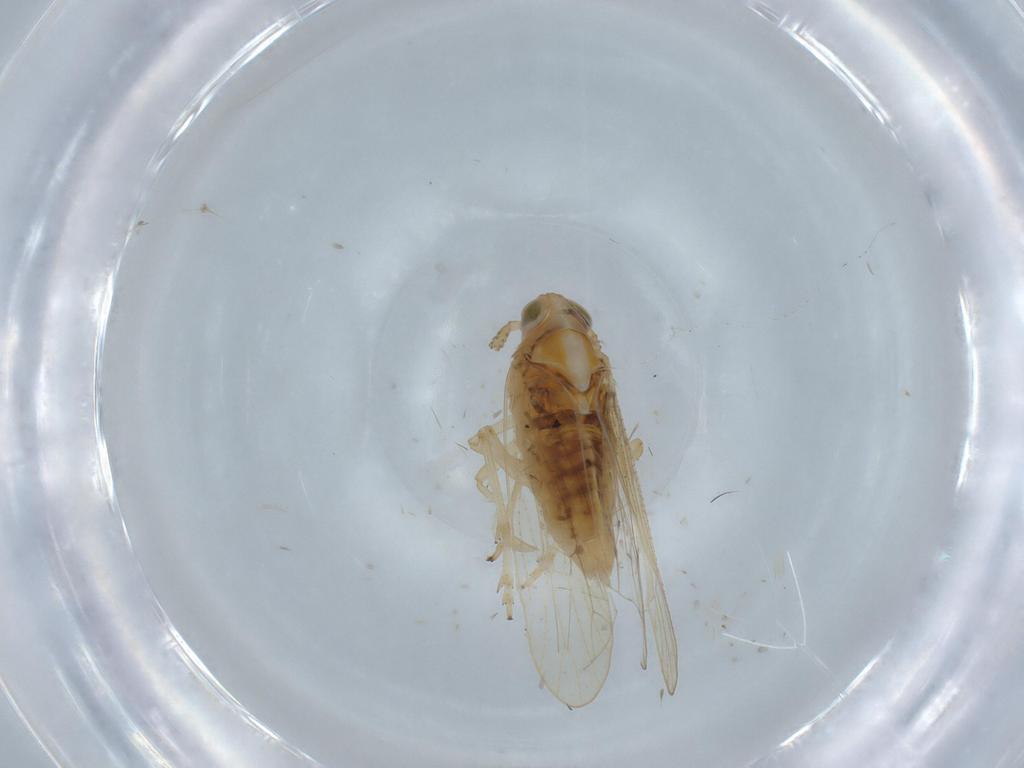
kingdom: Animalia
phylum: Arthropoda
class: Insecta
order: Hemiptera
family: Delphacidae
